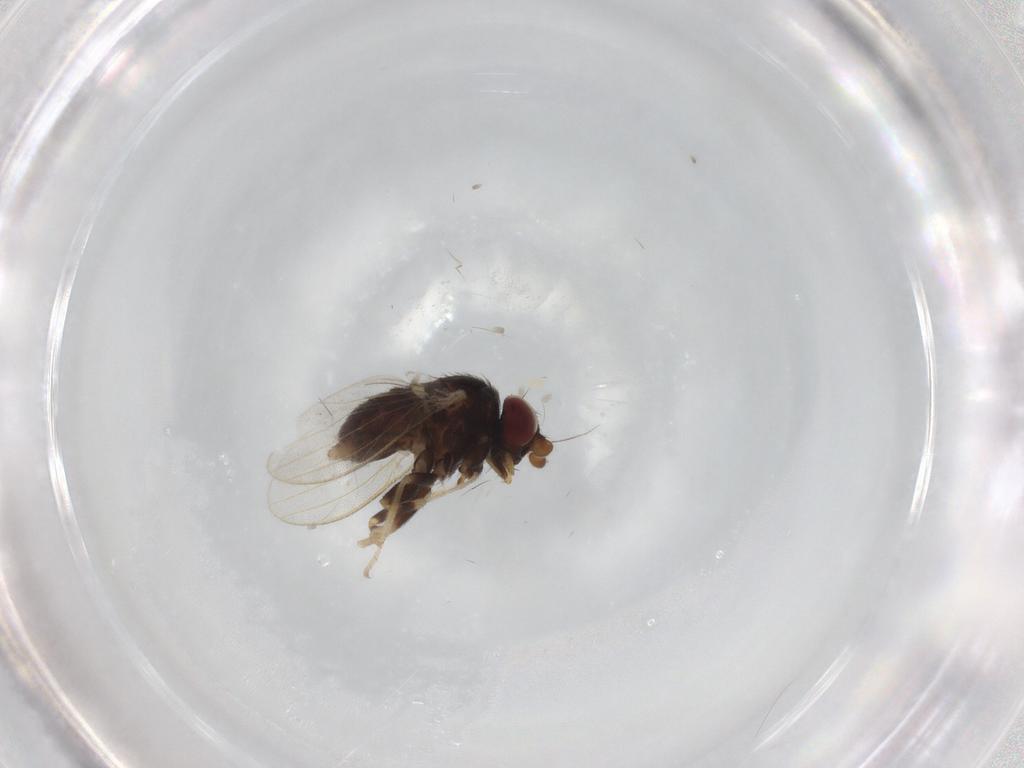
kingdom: Animalia
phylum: Arthropoda
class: Insecta
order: Diptera
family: Milichiidae
